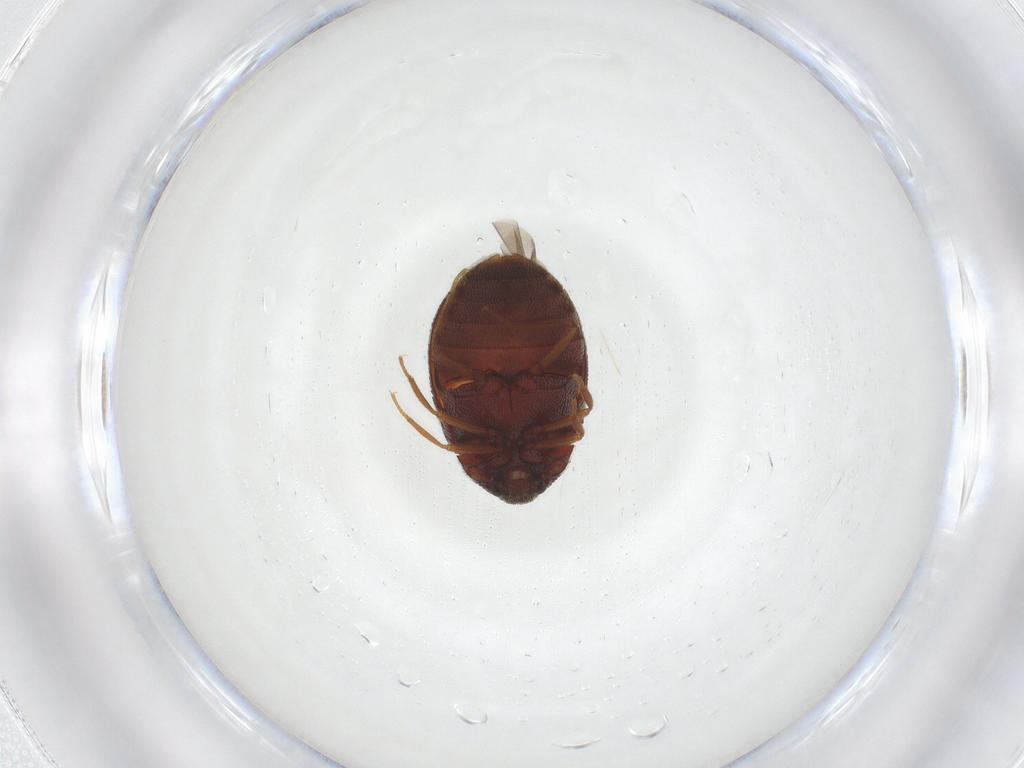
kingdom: Animalia
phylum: Arthropoda
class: Insecta
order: Coleoptera
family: Dermestidae
